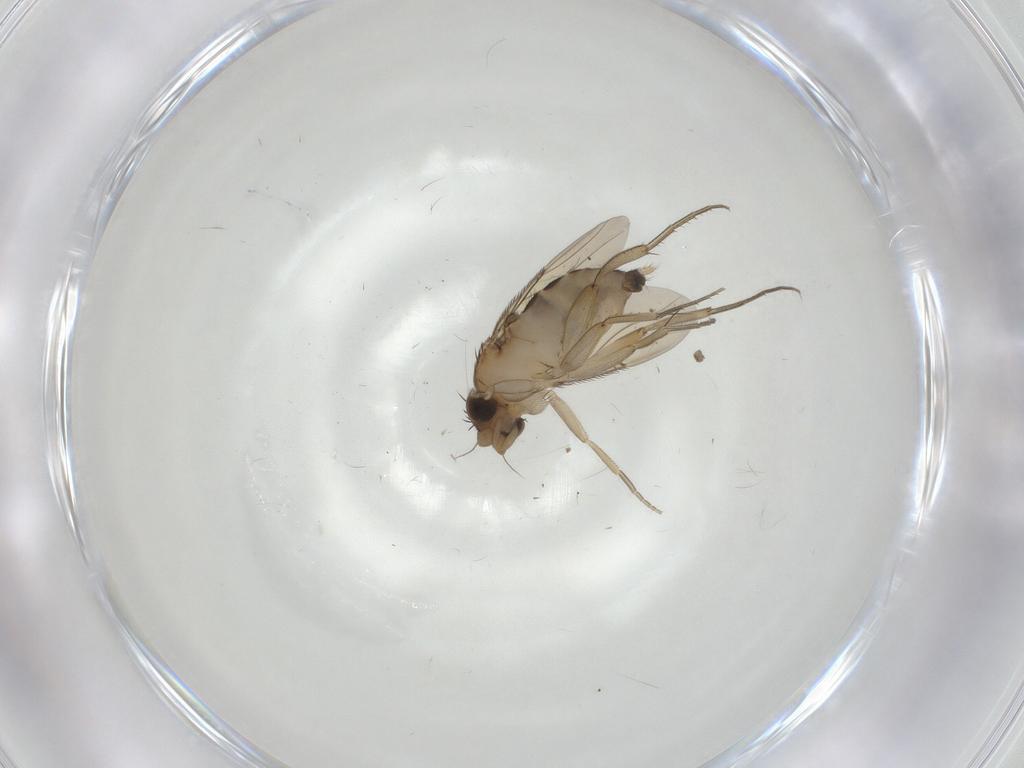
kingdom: Animalia
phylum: Arthropoda
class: Insecta
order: Diptera
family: Phoridae
